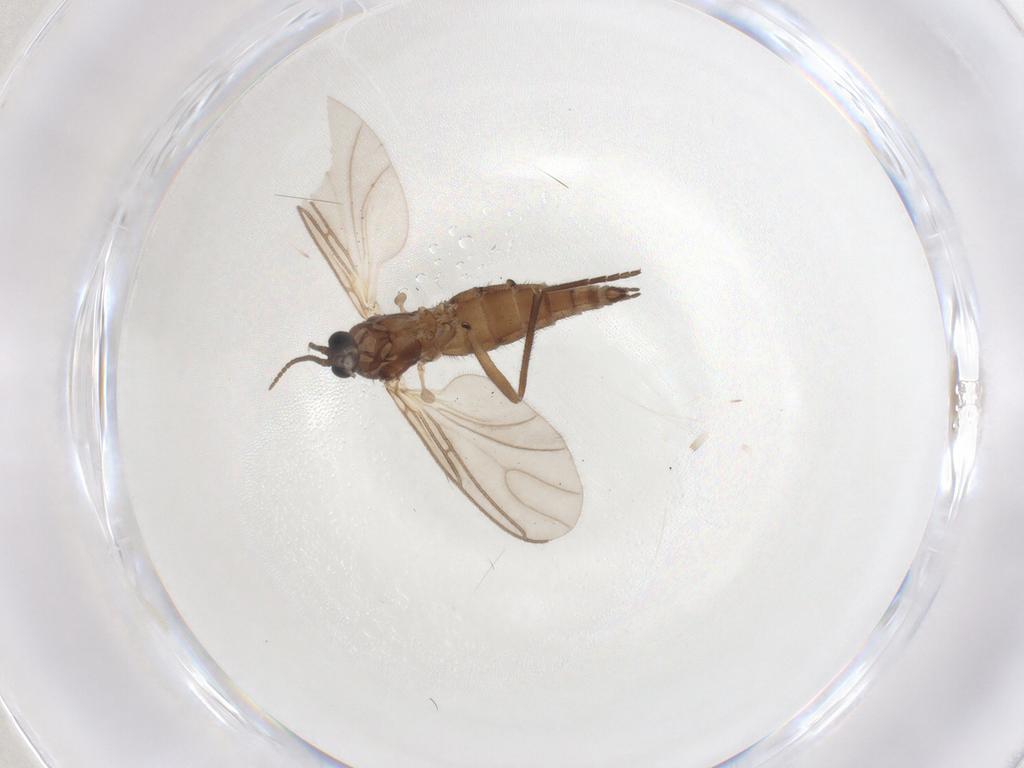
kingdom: Animalia
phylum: Arthropoda
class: Insecta
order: Diptera
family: Sciaridae
